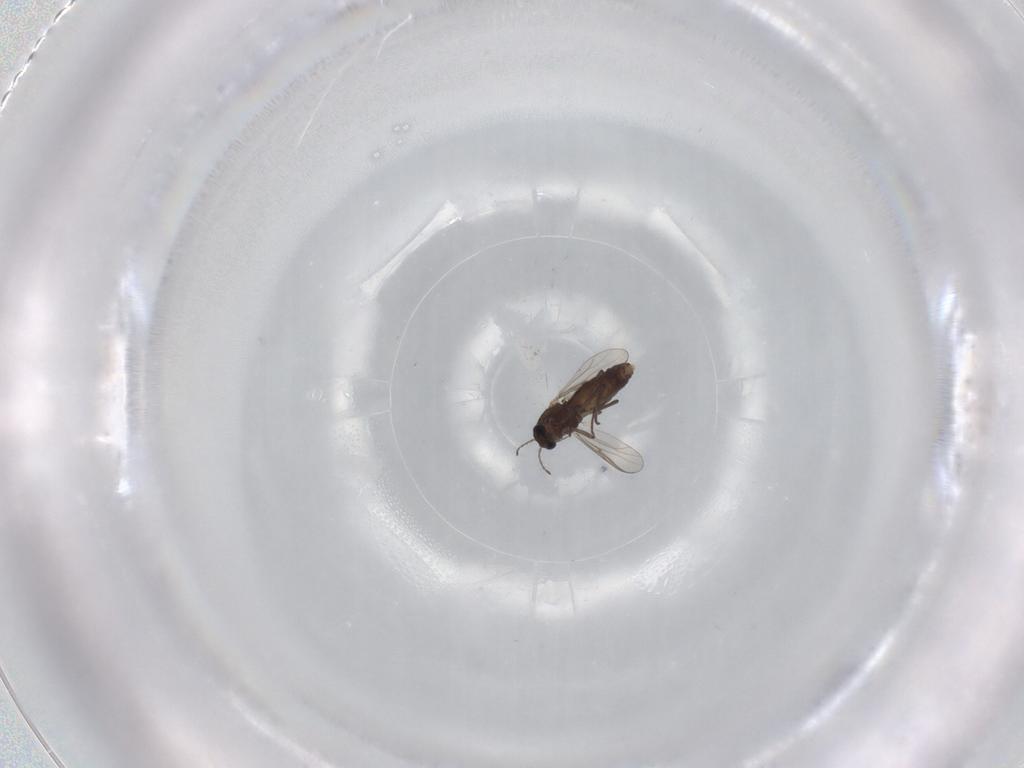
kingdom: Animalia
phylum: Arthropoda
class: Insecta
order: Diptera
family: Chironomidae
